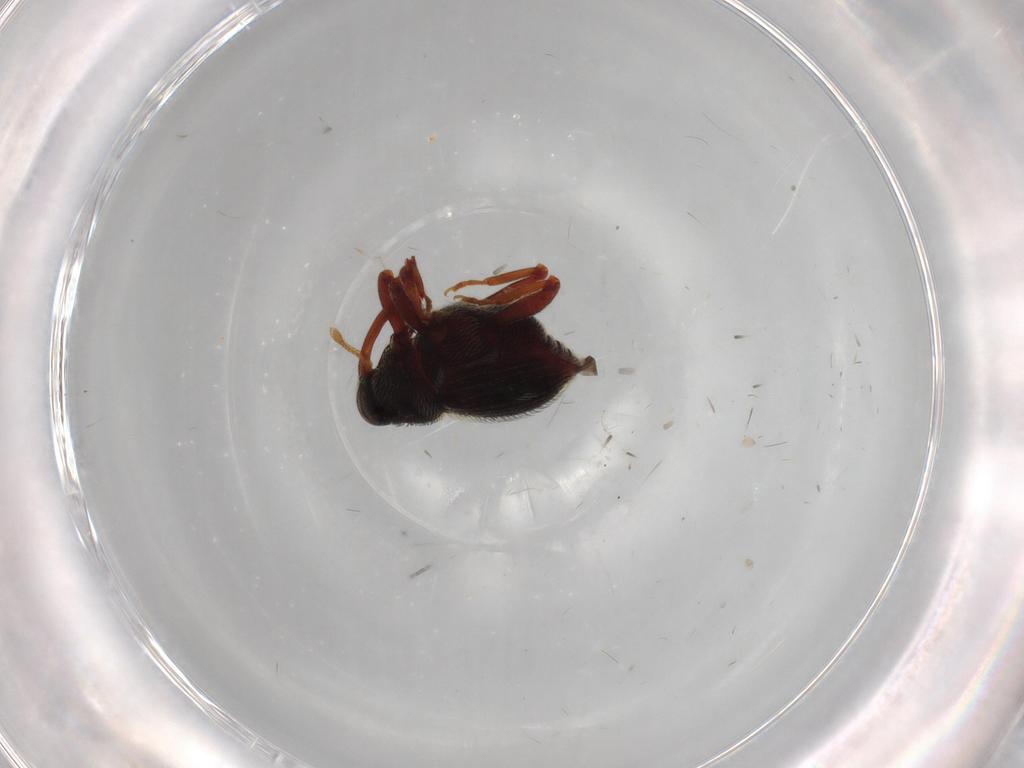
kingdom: Animalia
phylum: Arthropoda
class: Insecta
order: Coleoptera
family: Curculionidae
